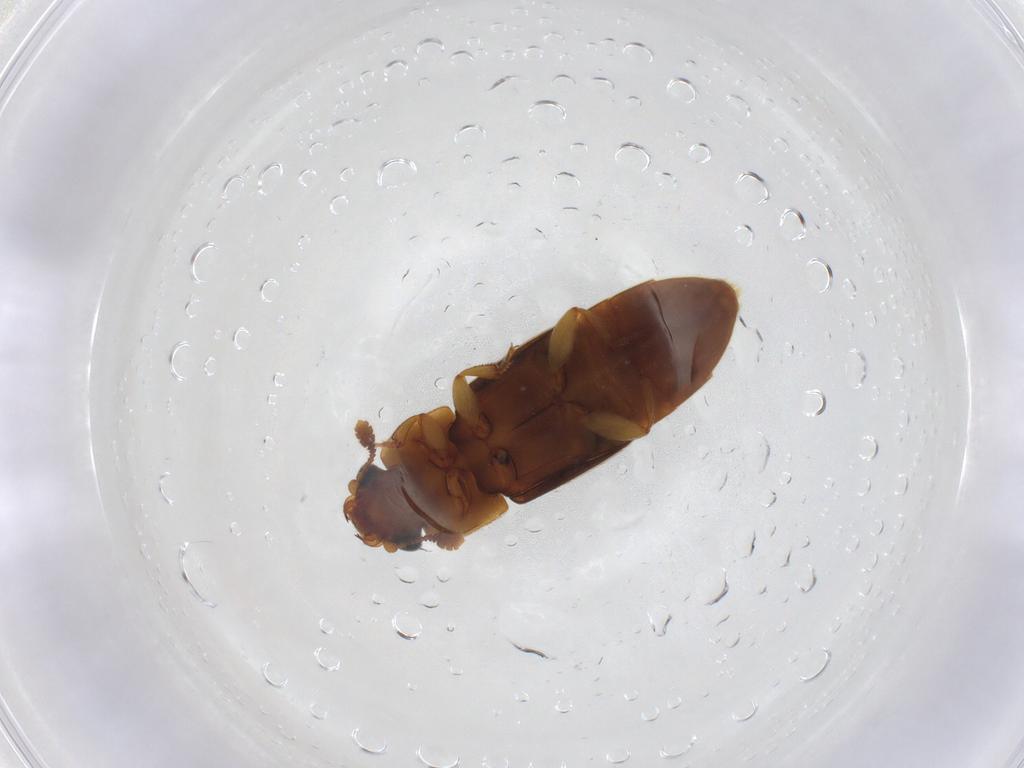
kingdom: Animalia
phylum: Arthropoda
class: Insecta
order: Coleoptera
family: Nitidulidae
